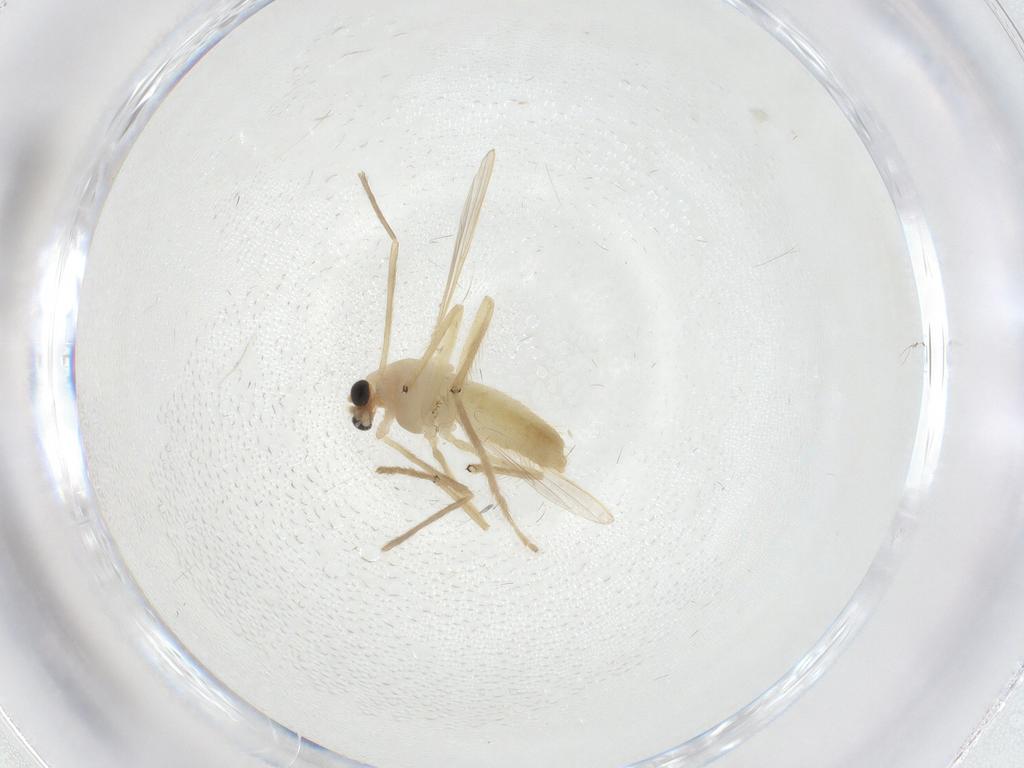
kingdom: Animalia
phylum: Arthropoda
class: Insecta
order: Diptera
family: Chironomidae
